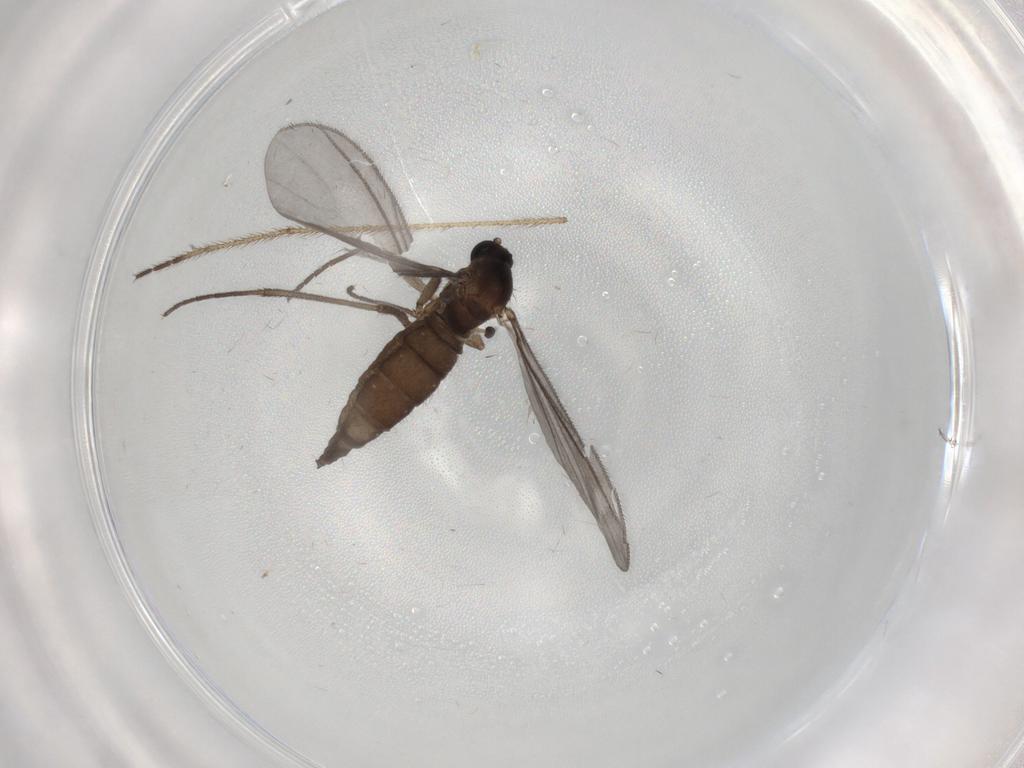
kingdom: Animalia
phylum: Arthropoda
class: Insecta
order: Diptera
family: Sciaridae
